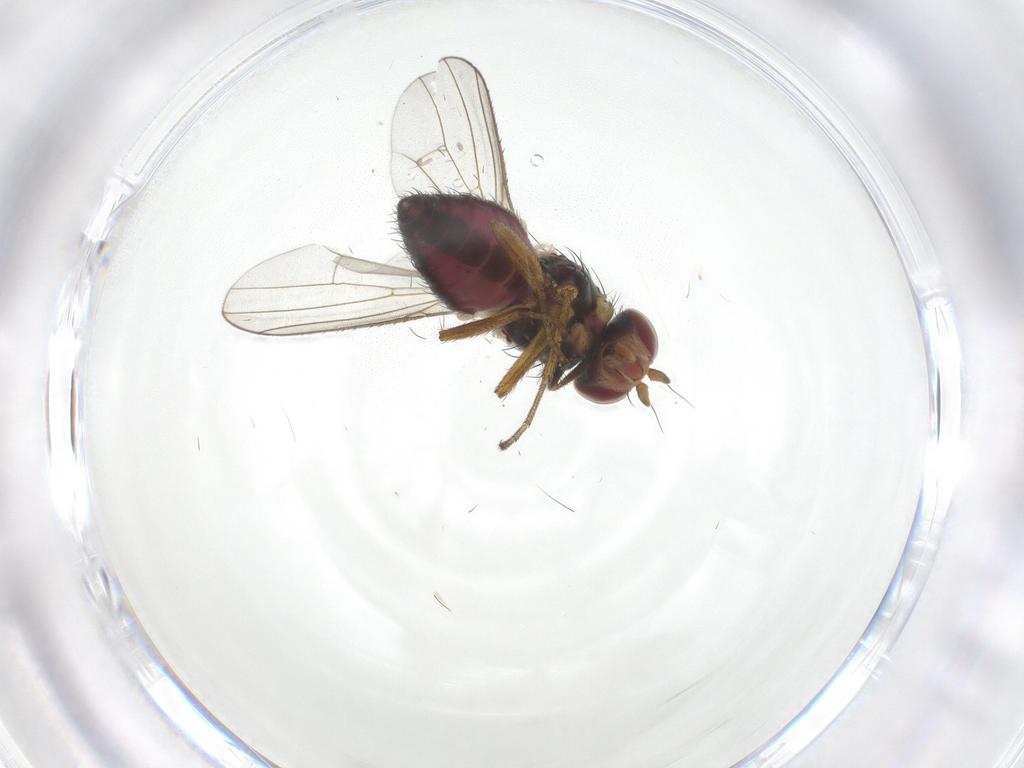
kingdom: Animalia
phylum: Arthropoda
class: Insecta
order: Diptera
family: Heleomyzidae
